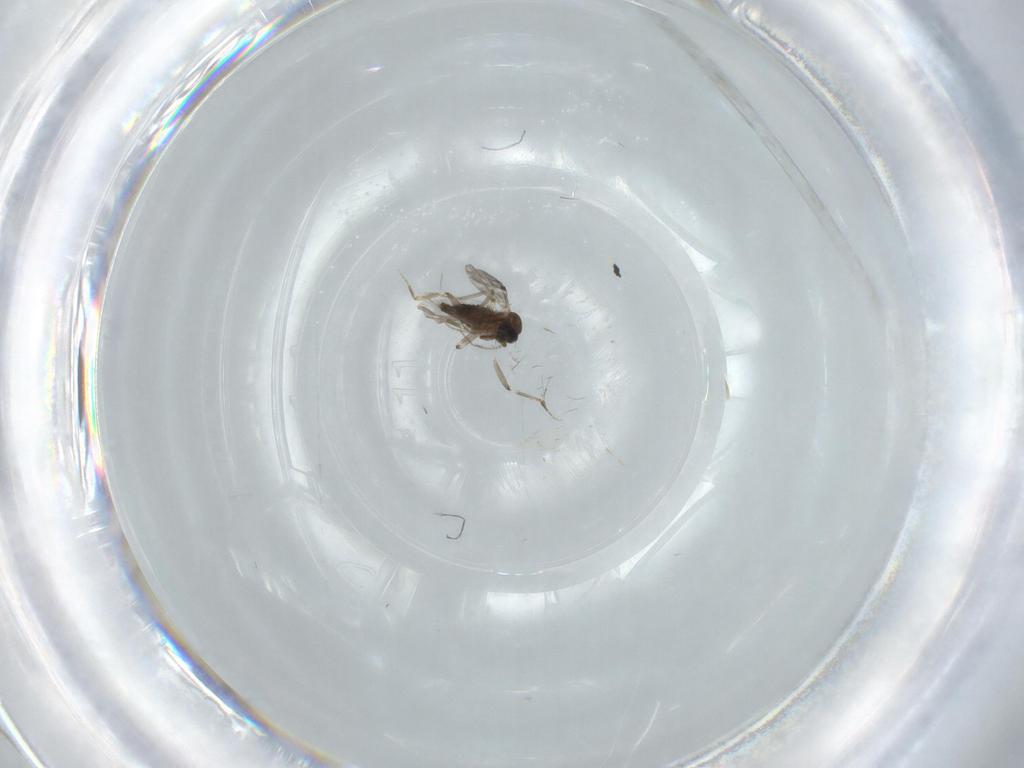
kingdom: Animalia
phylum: Arthropoda
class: Insecta
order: Diptera
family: Ceratopogonidae
